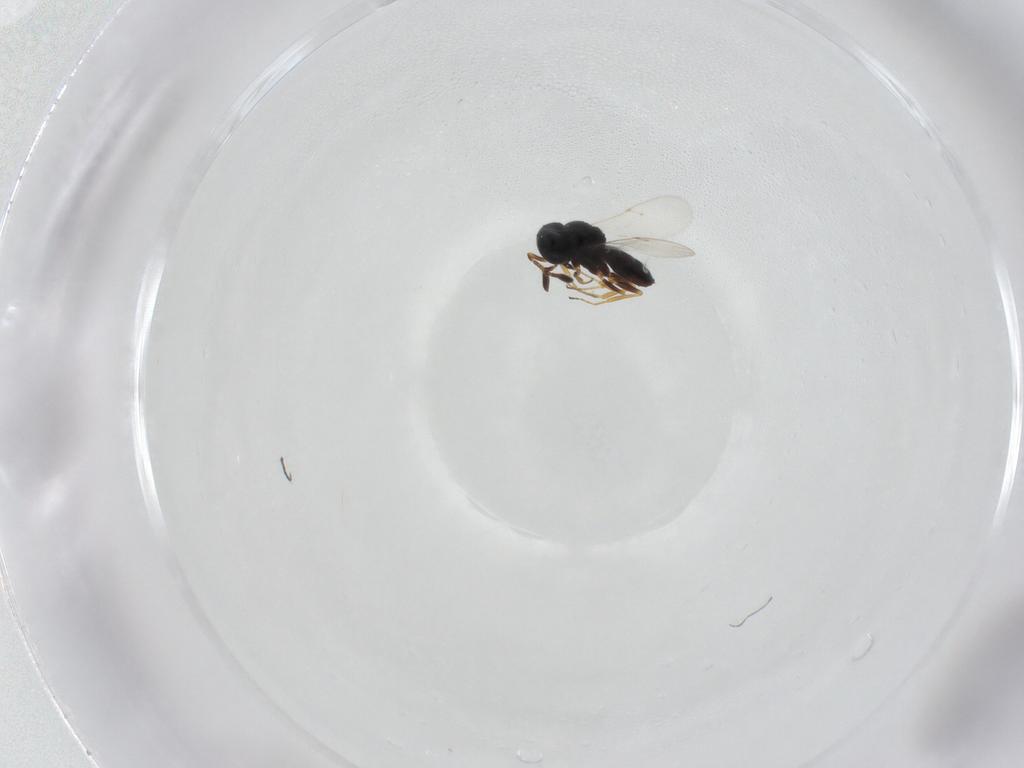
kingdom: Animalia
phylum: Arthropoda
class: Insecta
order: Hymenoptera
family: Scelionidae
